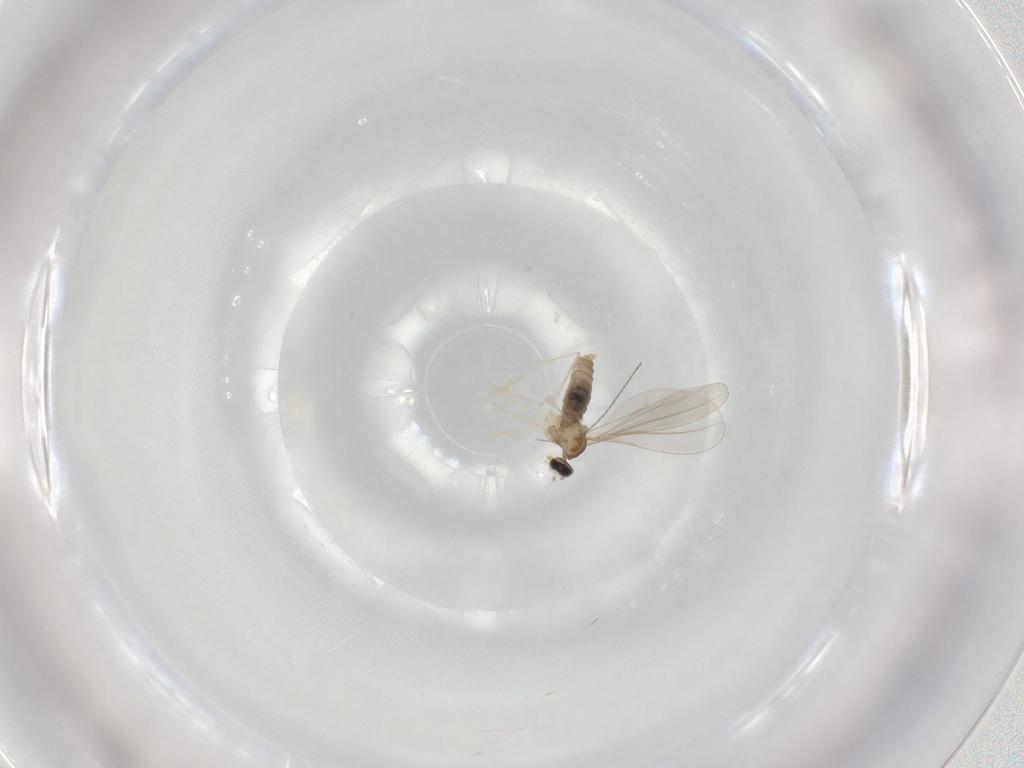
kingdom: Animalia
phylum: Arthropoda
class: Insecta
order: Diptera
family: Cecidomyiidae
